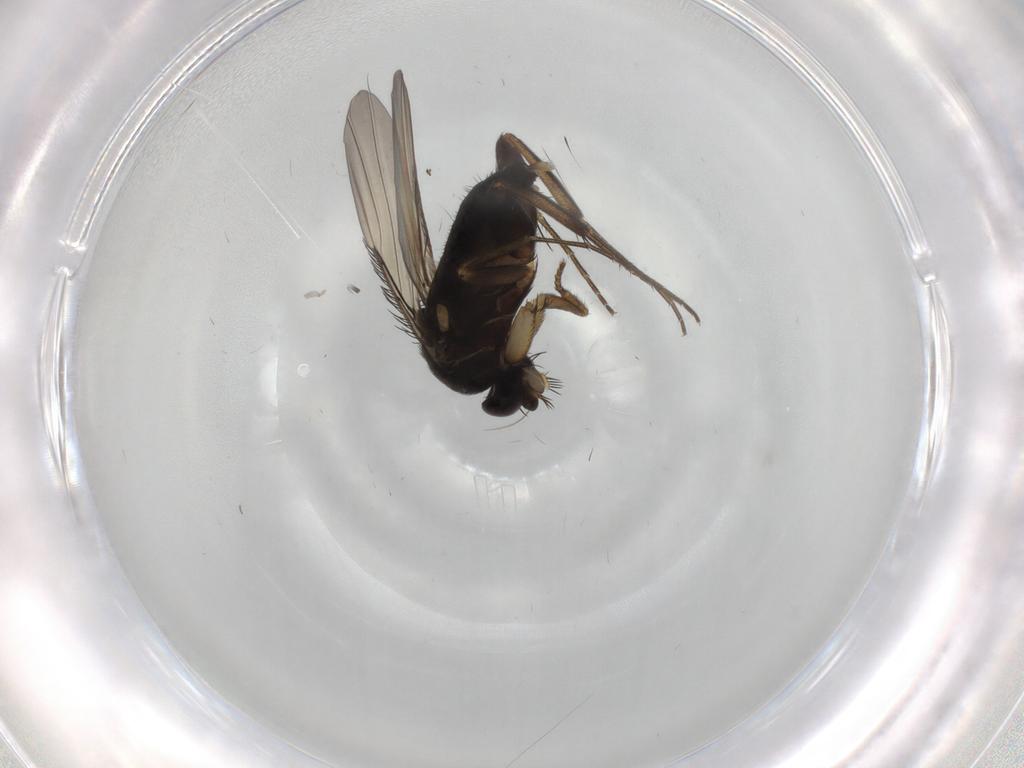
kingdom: Animalia
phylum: Arthropoda
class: Insecta
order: Diptera
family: Phoridae
